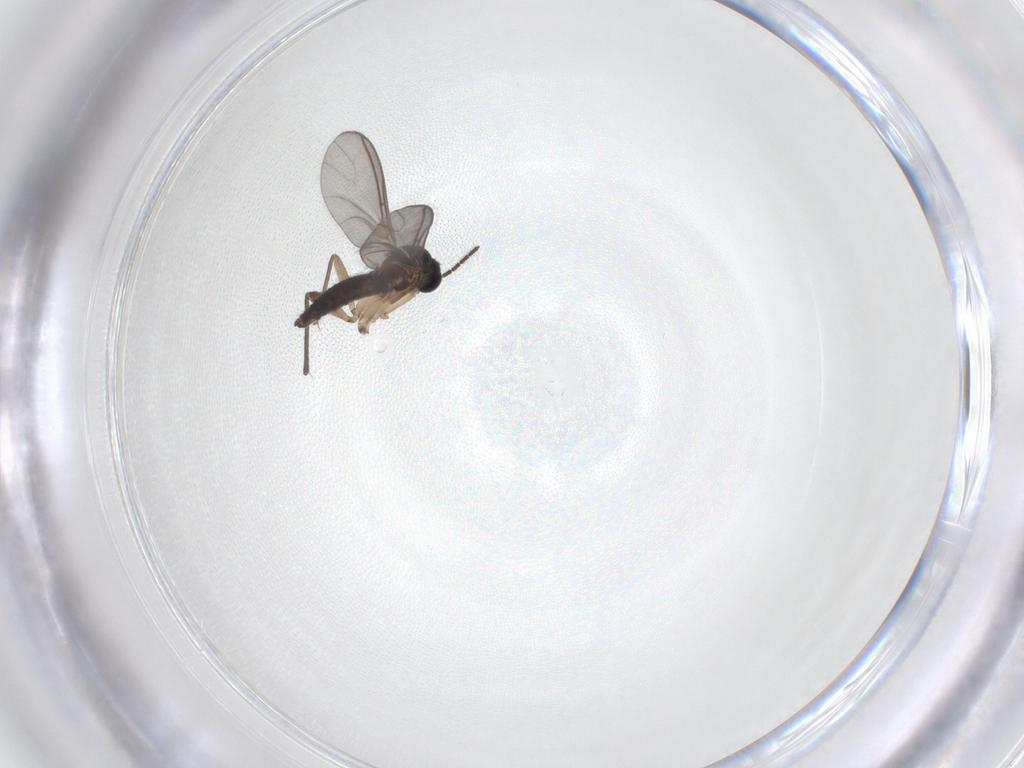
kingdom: Animalia
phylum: Arthropoda
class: Insecta
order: Diptera
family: Sciaridae
